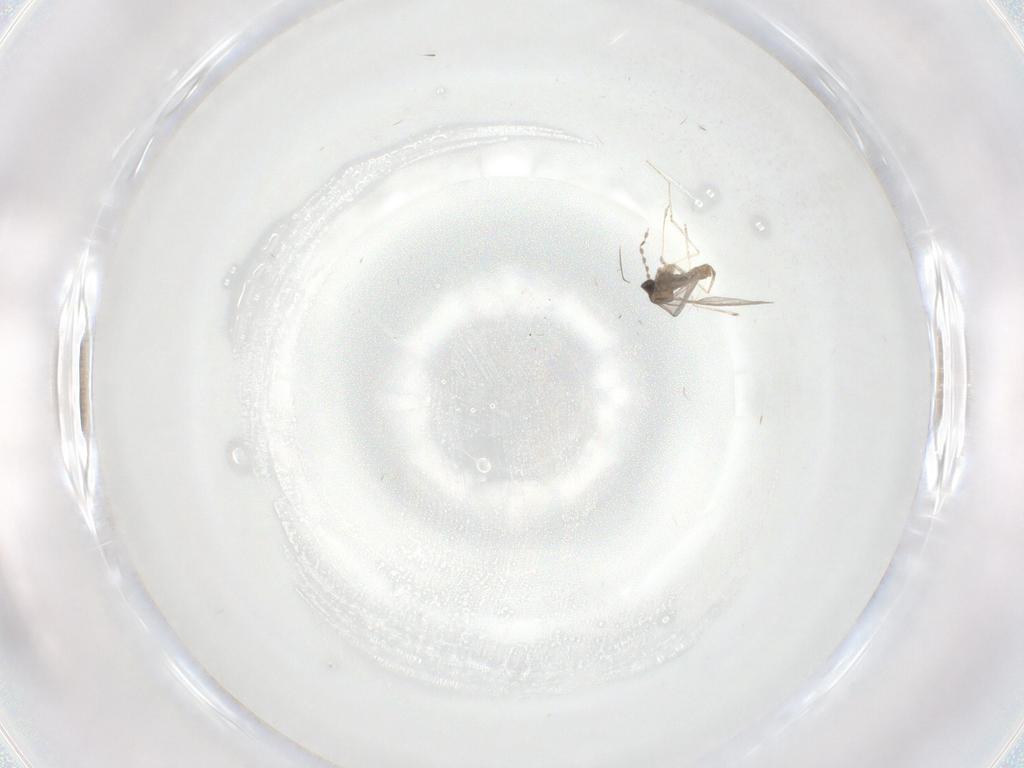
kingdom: Animalia
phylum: Arthropoda
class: Insecta
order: Diptera
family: Cecidomyiidae
